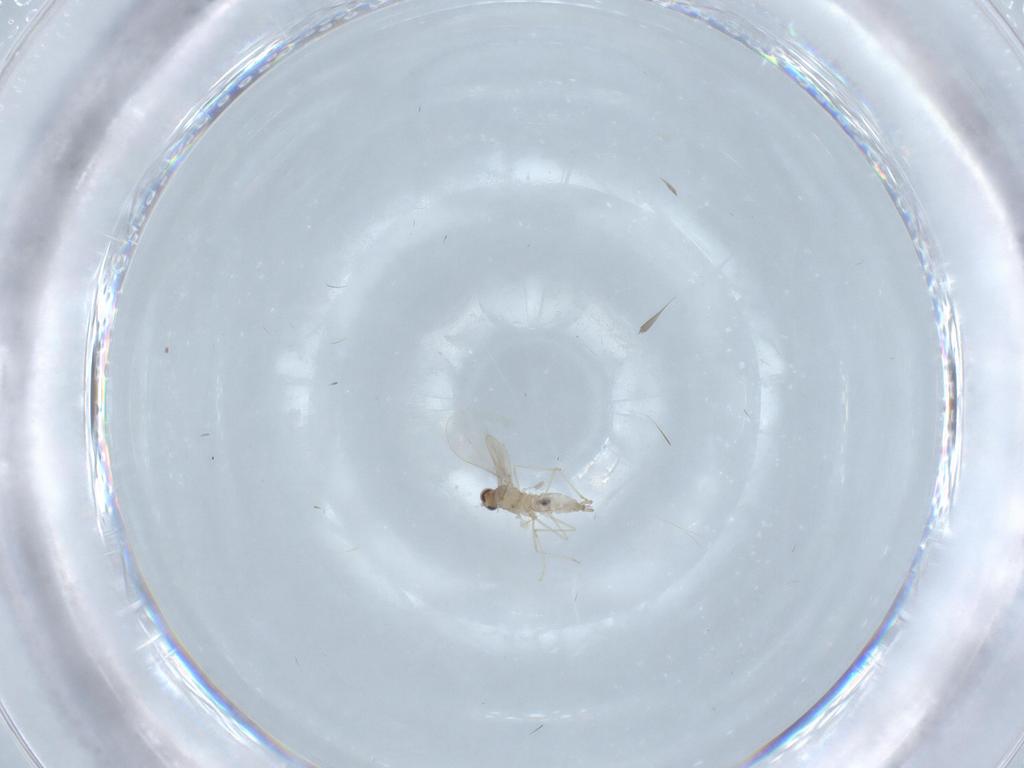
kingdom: Animalia
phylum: Arthropoda
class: Insecta
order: Diptera
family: Cecidomyiidae
